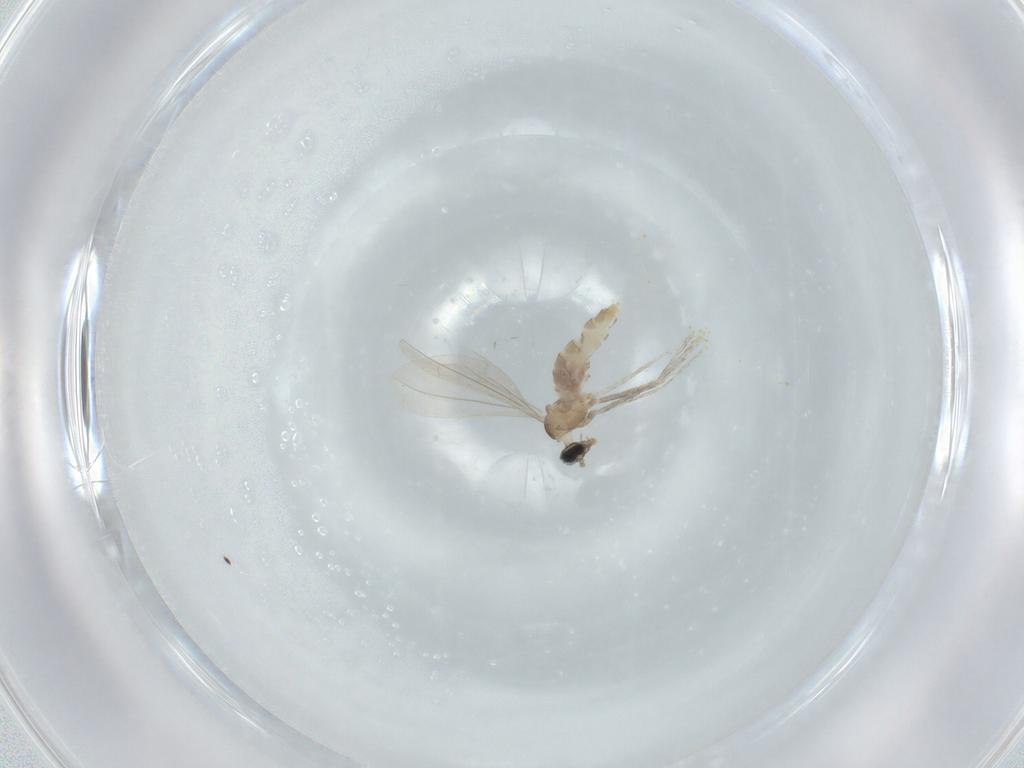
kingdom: Animalia
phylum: Arthropoda
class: Insecta
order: Diptera
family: Cecidomyiidae
